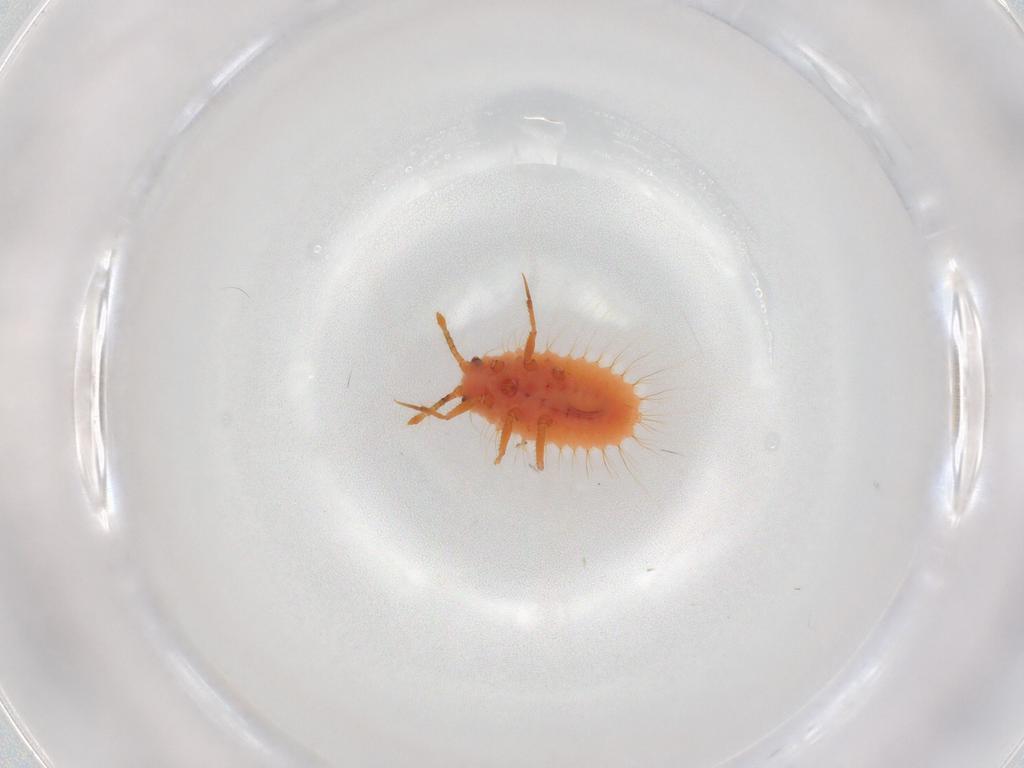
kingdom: Animalia
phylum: Arthropoda
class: Insecta
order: Hemiptera
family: Coccoidea_incertae_sedis
